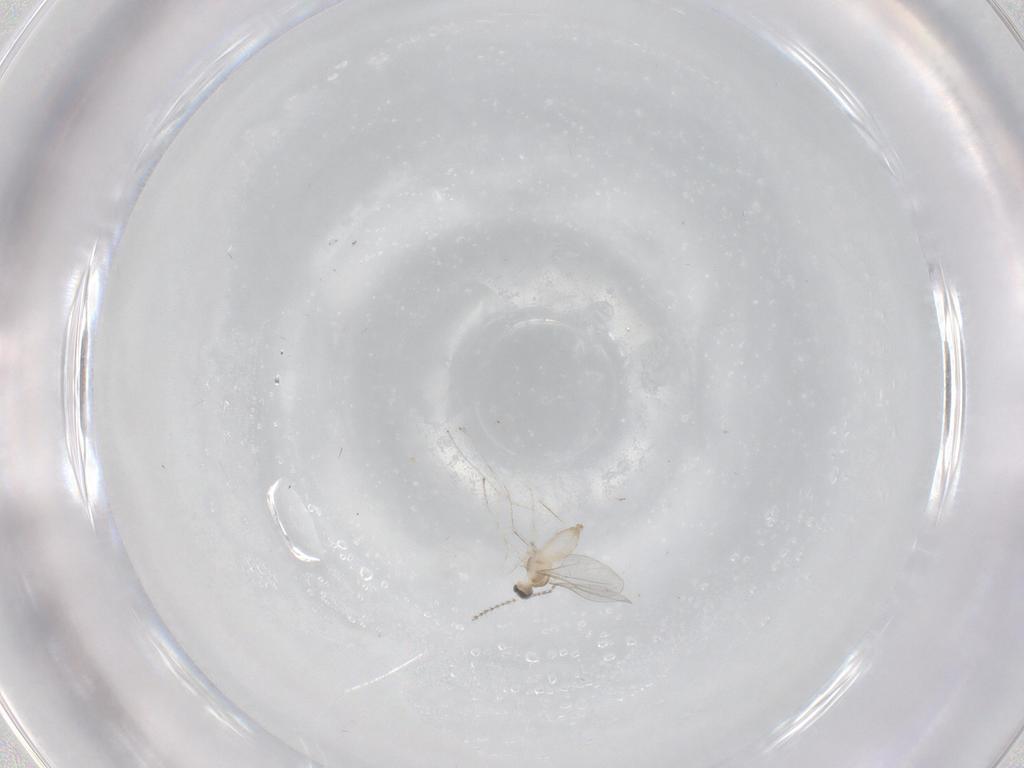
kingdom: Animalia
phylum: Arthropoda
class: Insecta
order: Diptera
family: Cecidomyiidae
